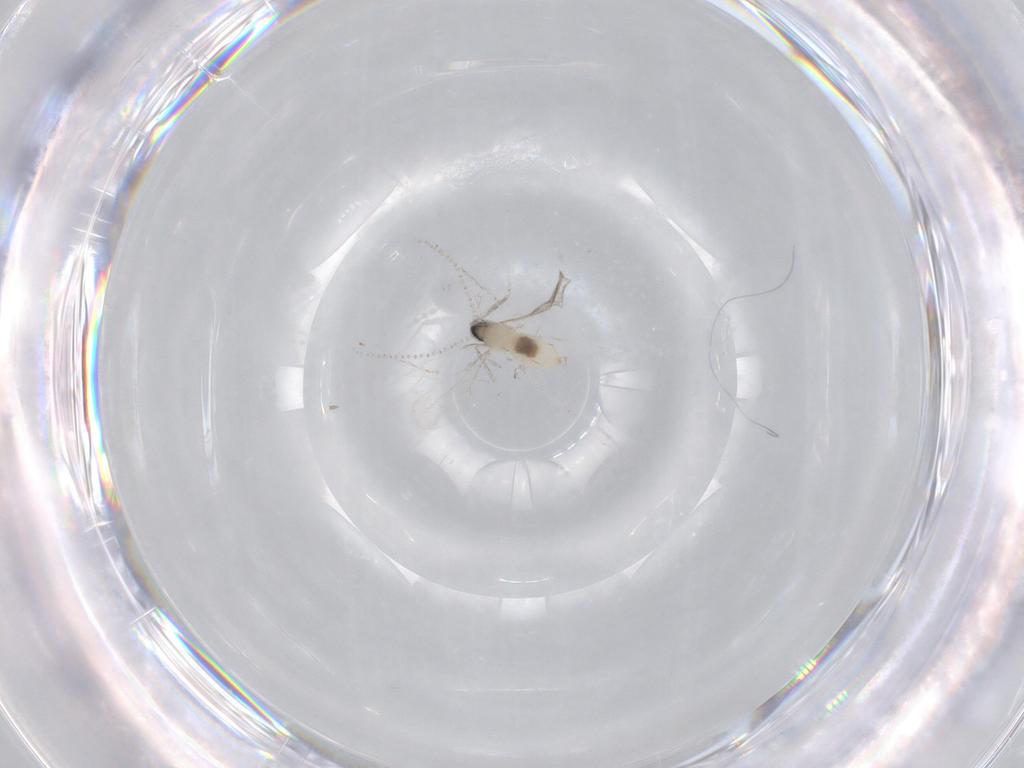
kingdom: Animalia
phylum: Arthropoda
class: Insecta
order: Diptera
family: Cecidomyiidae
